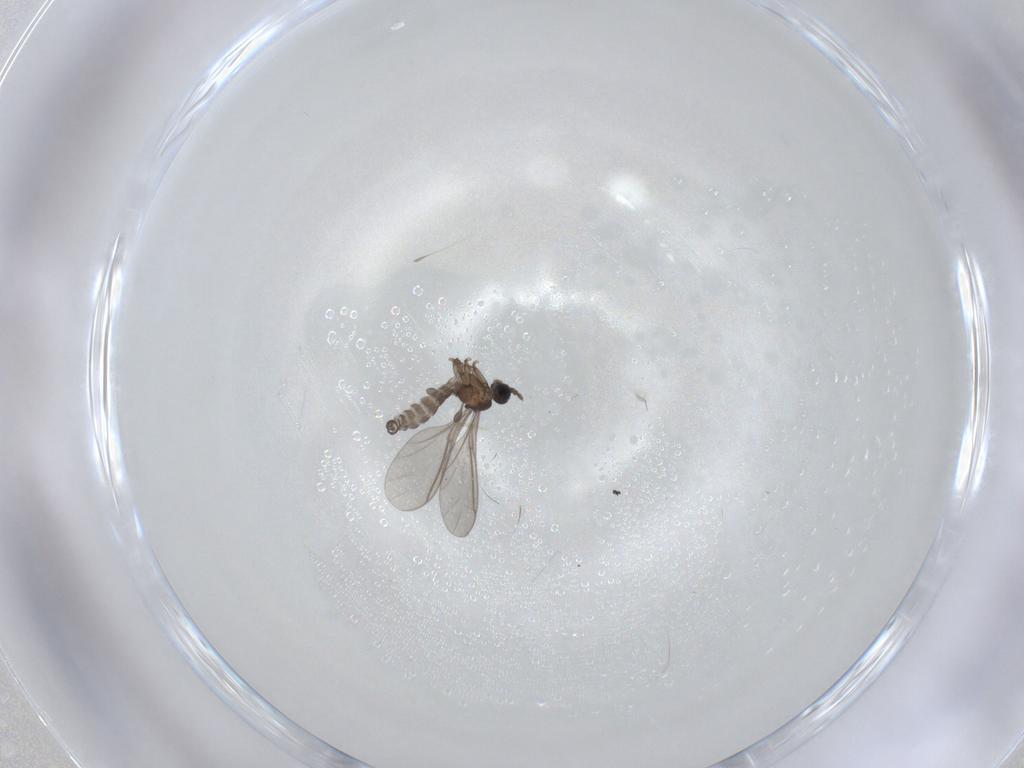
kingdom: Animalia
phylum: Arthropoda
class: Insecta
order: Diptera
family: Mycetophilidae
